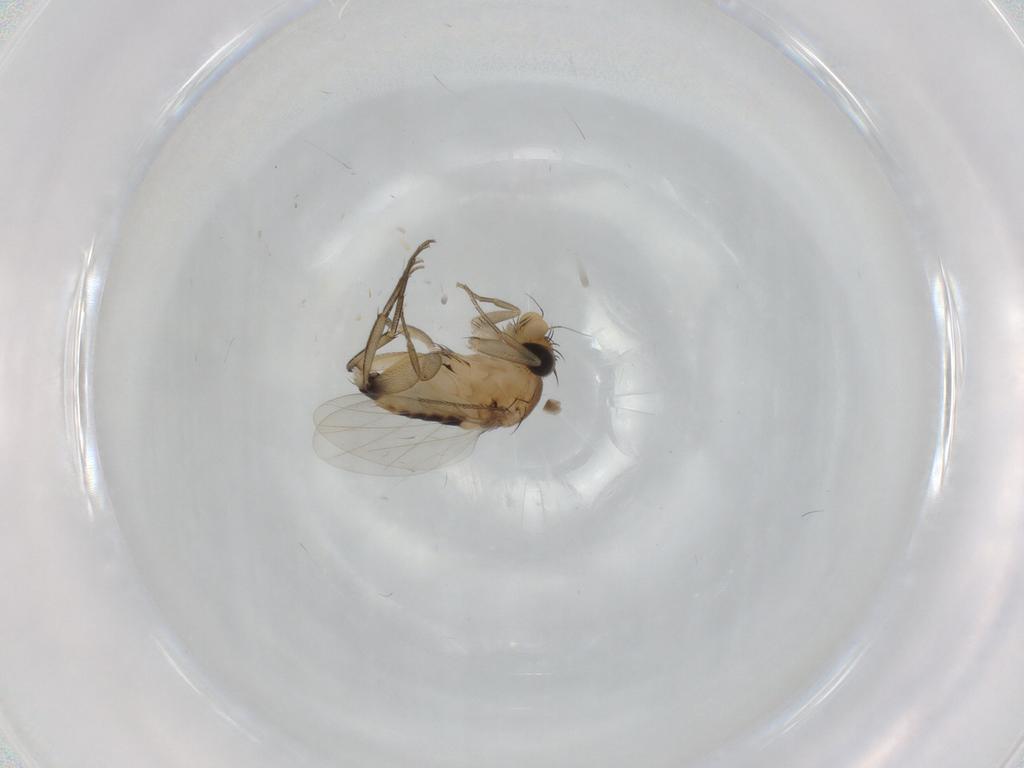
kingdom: Animalia
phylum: Arthropoda
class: Insecta
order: Diptera
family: Phoridae
